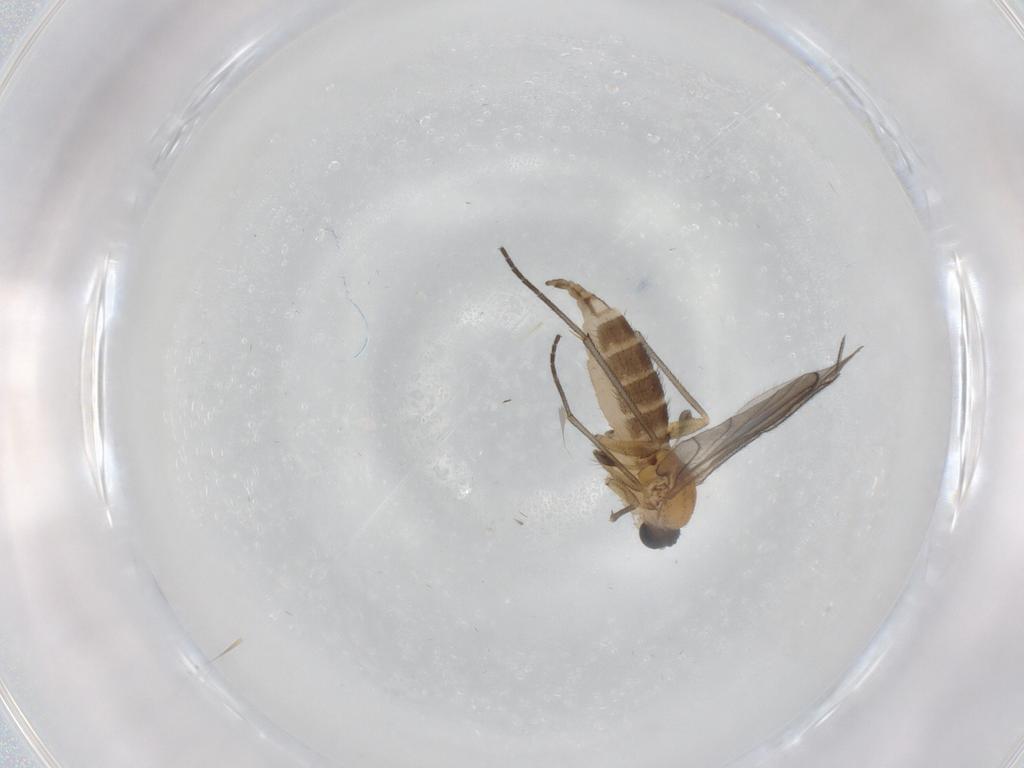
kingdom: Animalia
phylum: Arthropoda
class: Insecta
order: Diptera
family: Sciaridae
